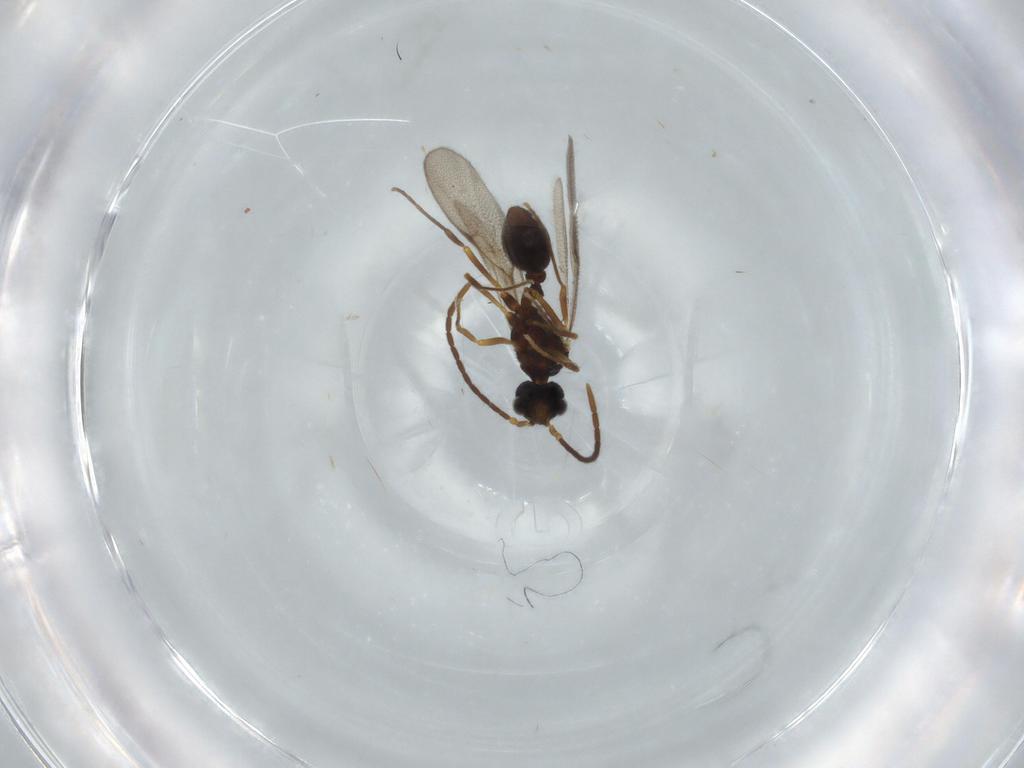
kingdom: Animalia
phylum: Arthropoda
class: Insecta
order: Hymenoptera
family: Formicidae
